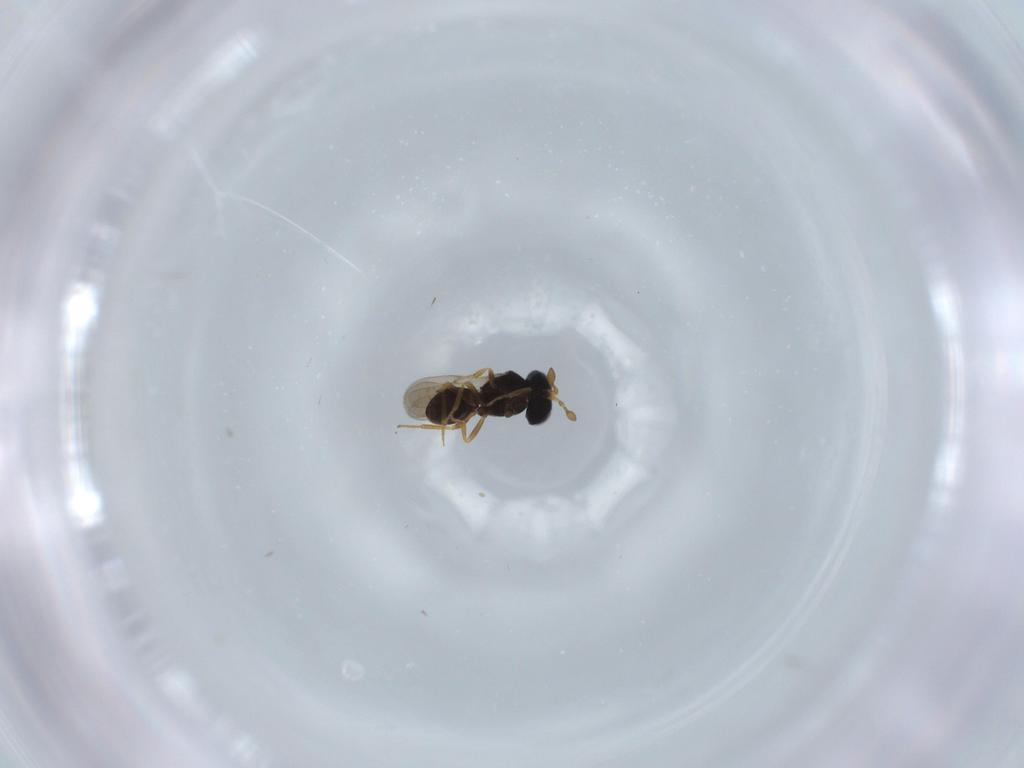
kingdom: Animalia
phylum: Arthropoda
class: Insecta
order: Hymenoptera
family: Scelionidae
